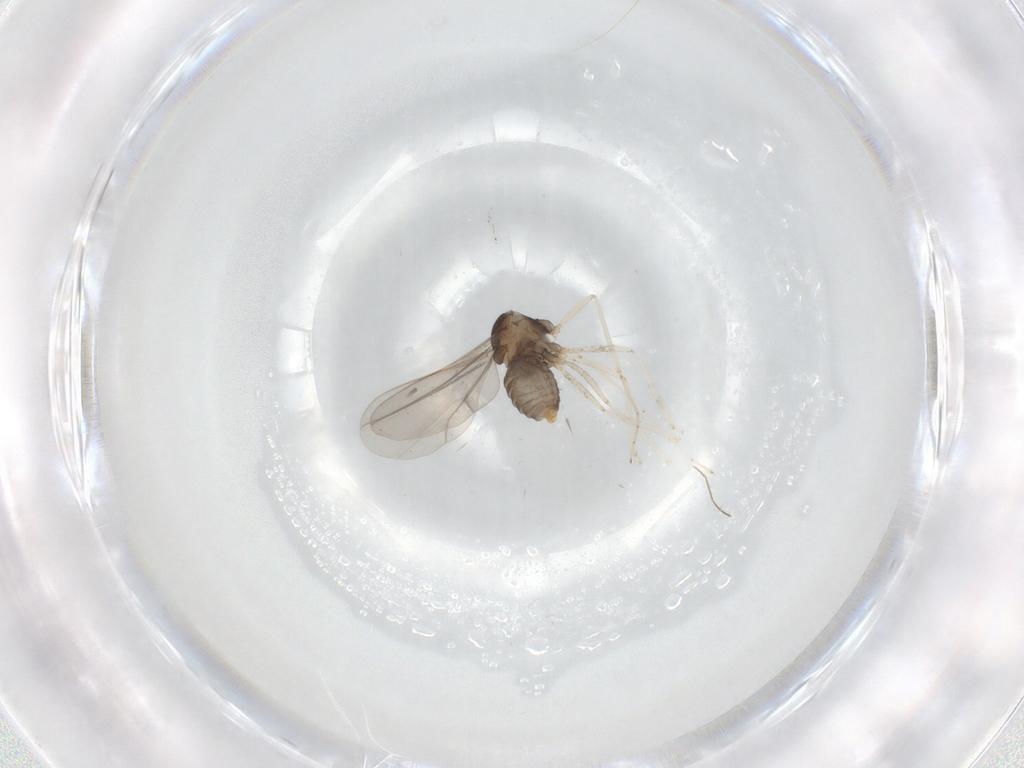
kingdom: Animalia
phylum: Arthropoda
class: Insecta
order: Diptera
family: Cecidomyiidae
